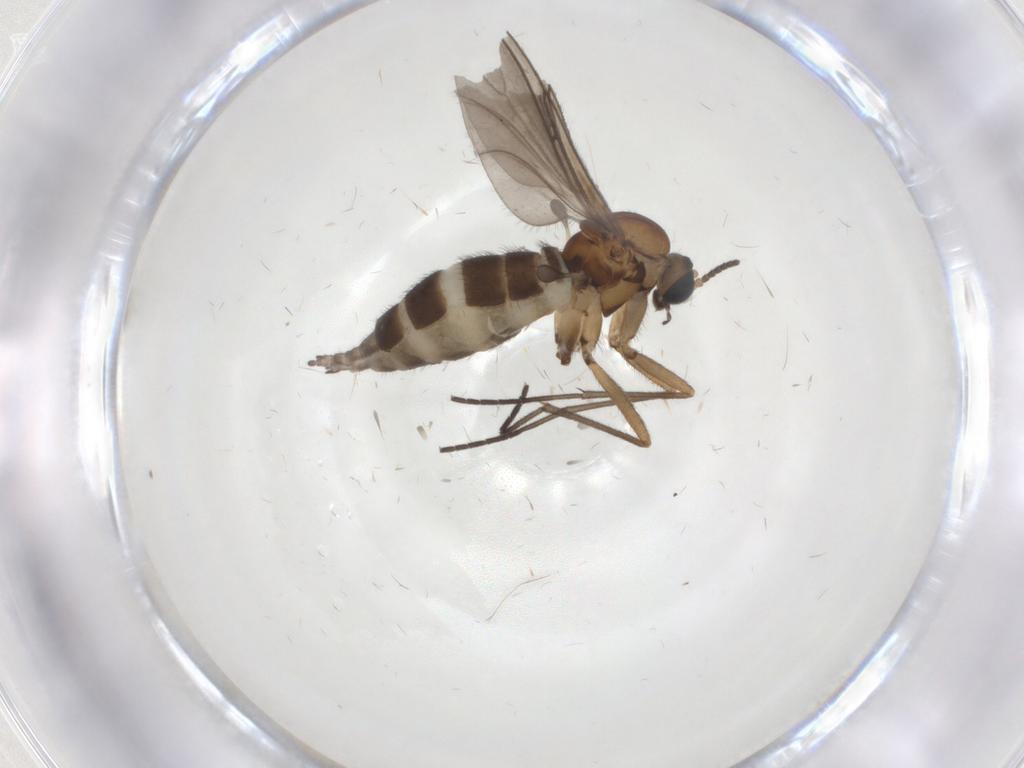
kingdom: Animalia
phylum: Arthropoda
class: Insecta
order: Diptera
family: Sciaridae
